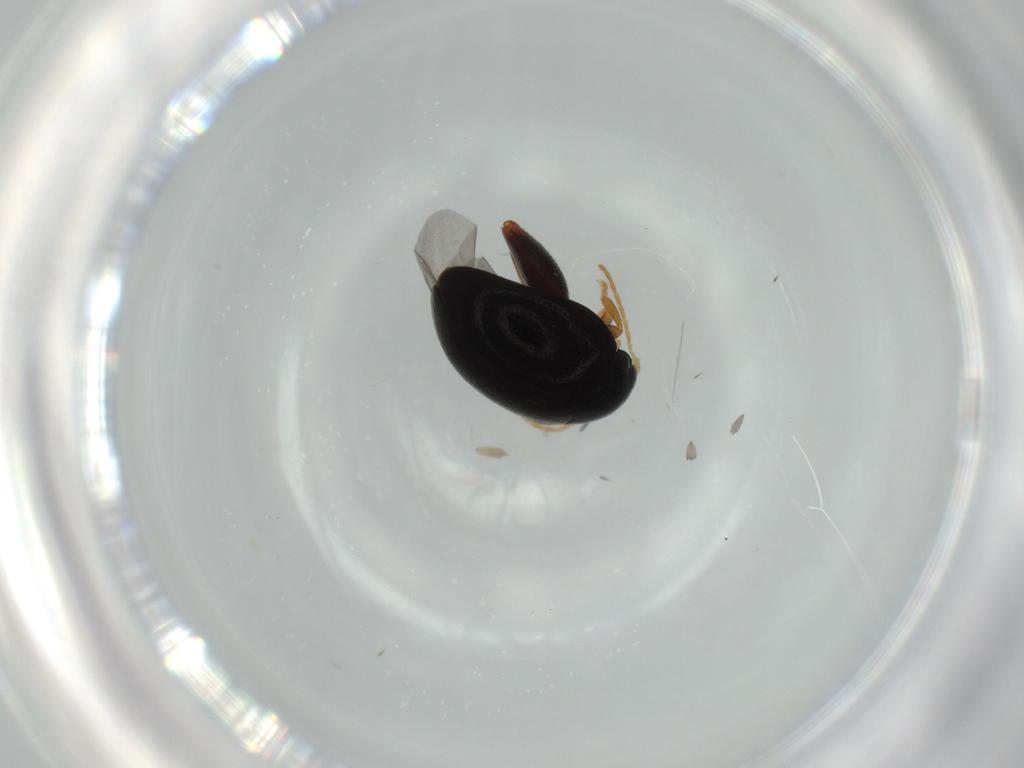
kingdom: Animalia
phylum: Arthropoda
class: Insecta
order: Coleoptera
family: Chrysomelidae
